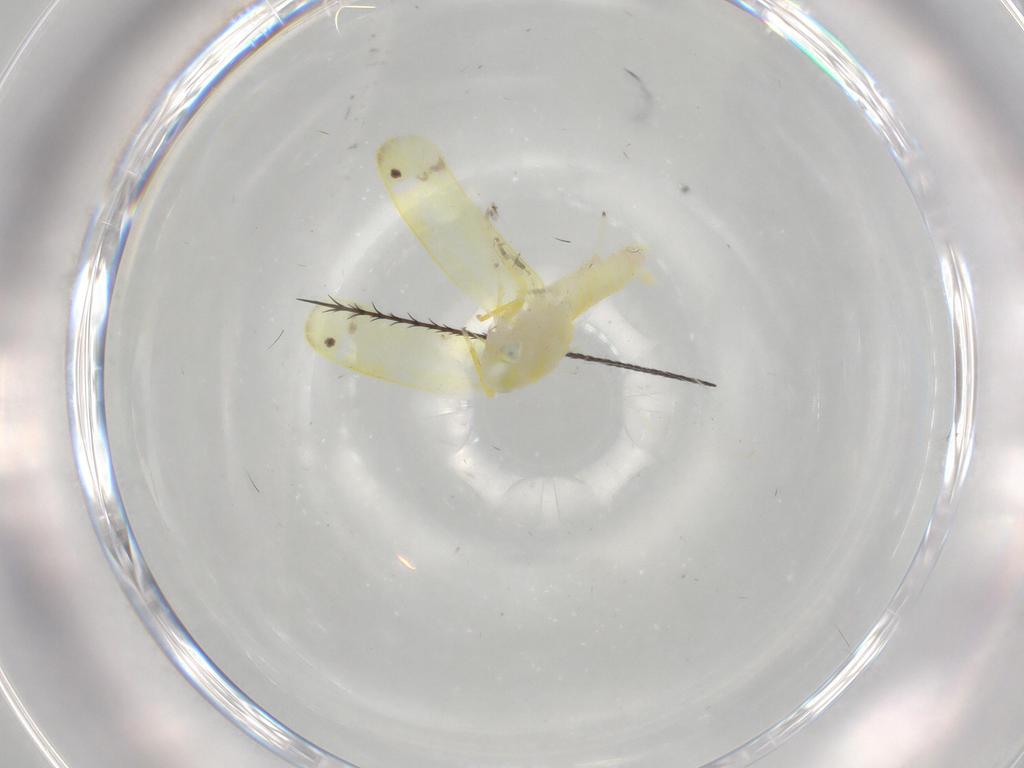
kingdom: Animalia
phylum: Arthropoda
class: Insecta
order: Hemiptera
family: Cicadellidae
